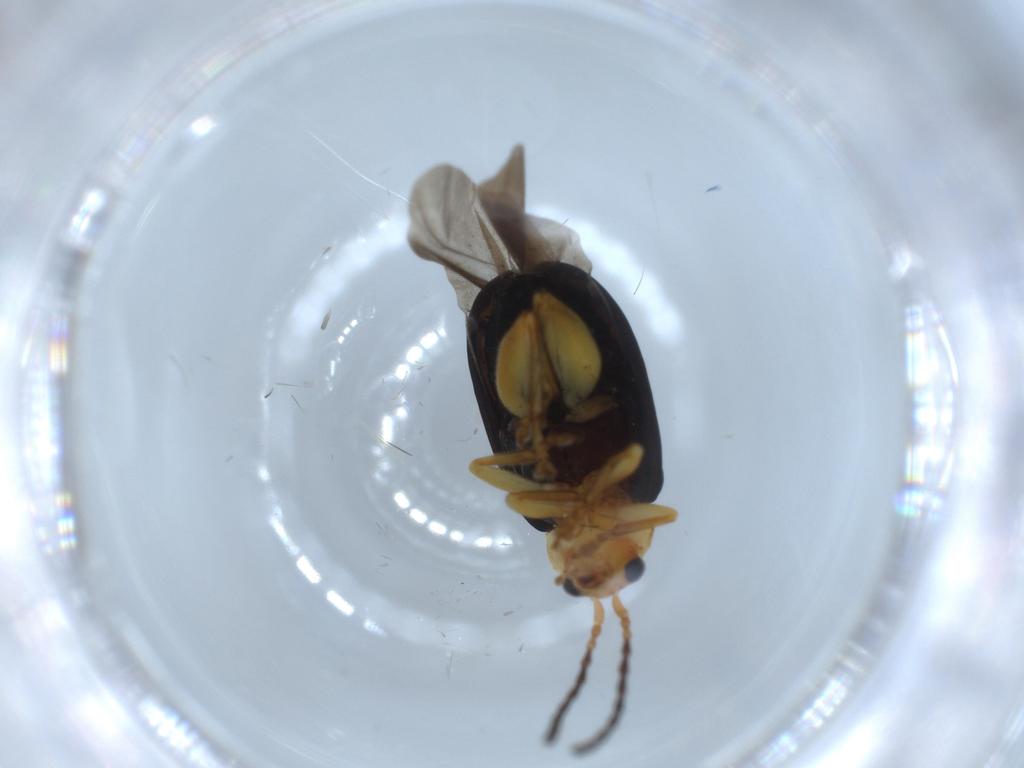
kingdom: Animalia
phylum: Arthropoda
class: Insecta
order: Coleoptera
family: Chrysomelidae
